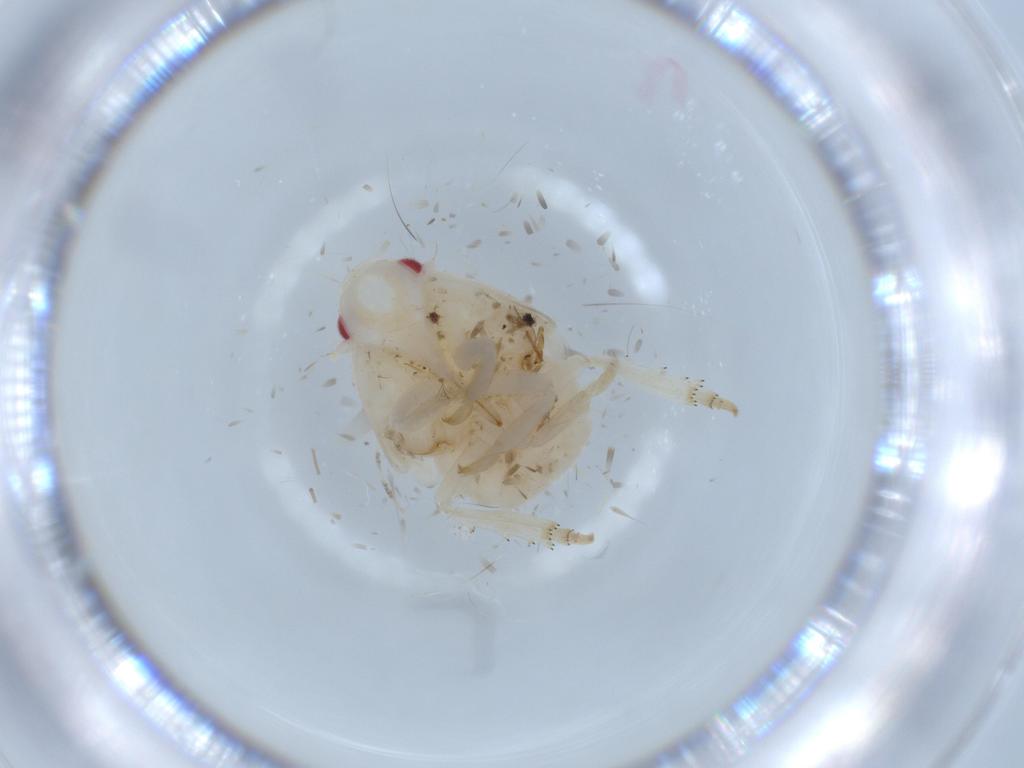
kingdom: Animalia
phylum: Arthropoda
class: Insecta
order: Hemiptera
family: Flatidae
